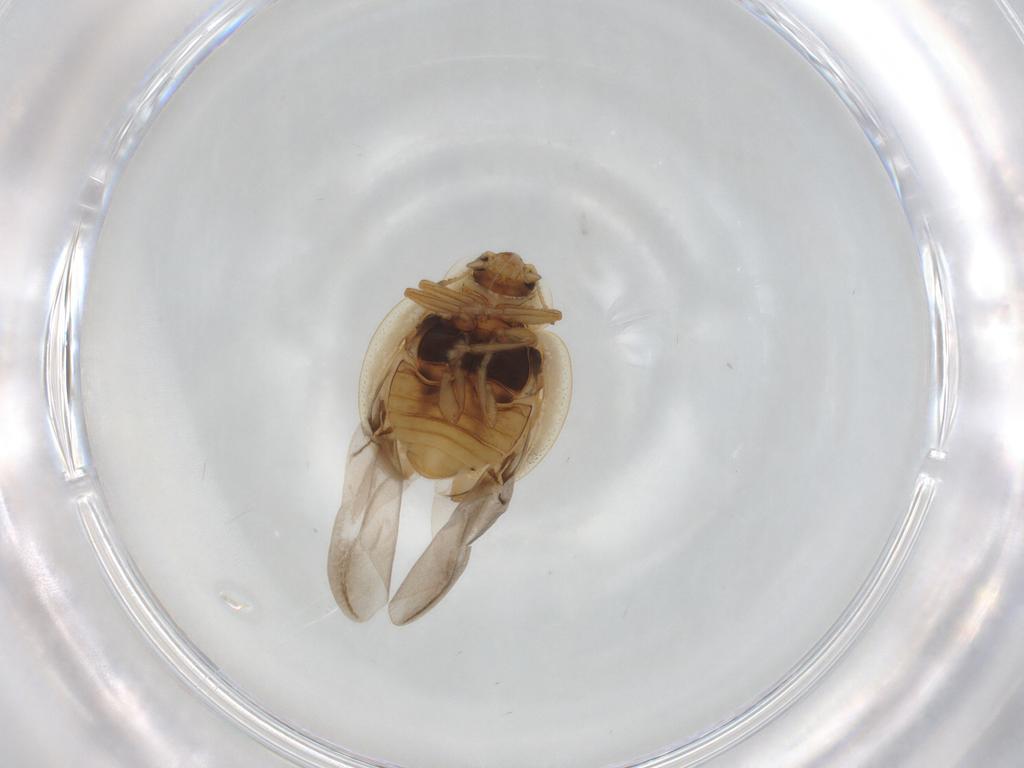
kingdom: Animalia
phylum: Arthropoda
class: Insecta
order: Coleoptera
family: Coccinellidae
